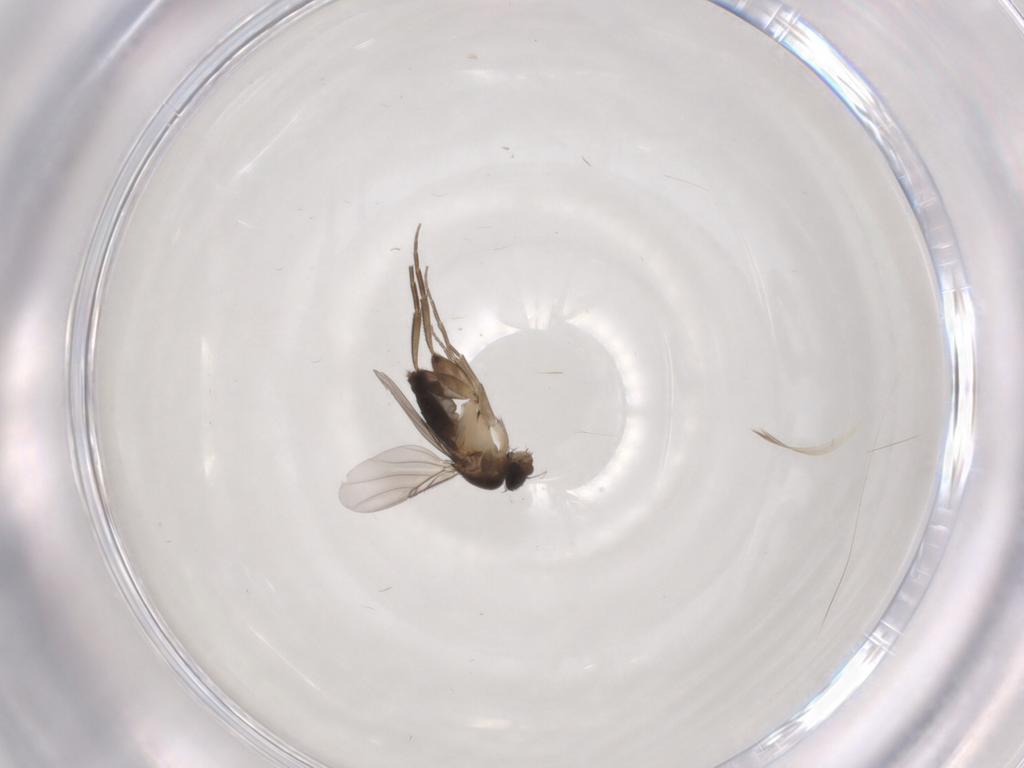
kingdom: Animalia
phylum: Arthropoda
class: Insecta
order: Diptera
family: Phoridae
